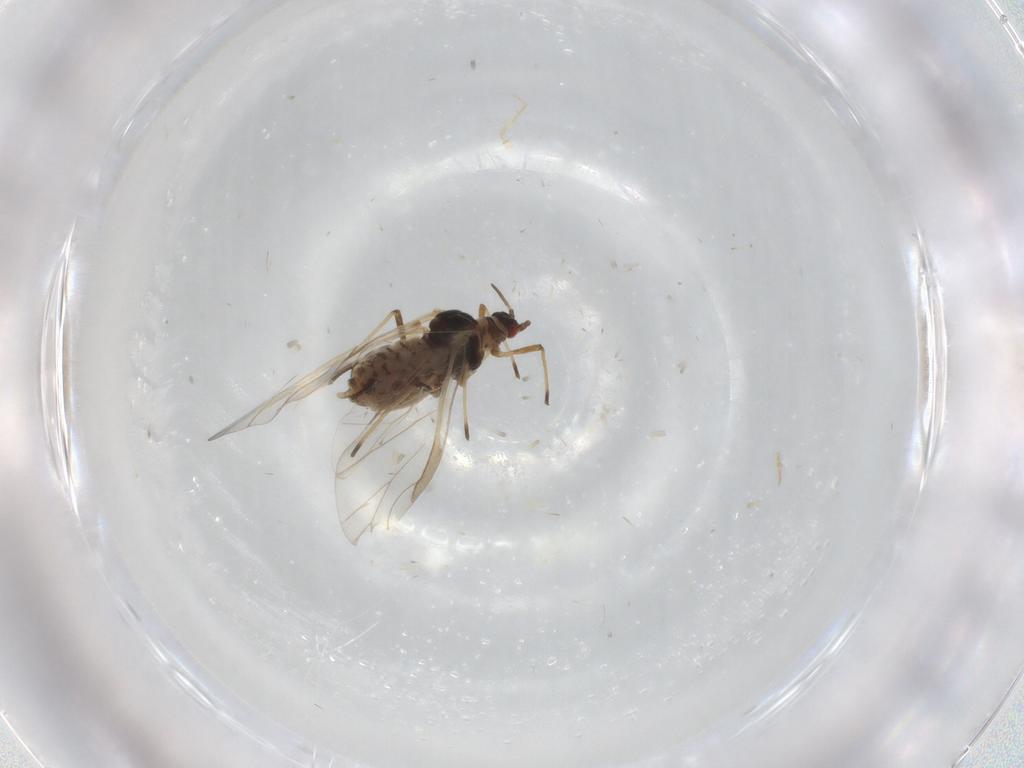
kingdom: Animalia
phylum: Arthropoda
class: Insecta
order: Hemiptera
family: Aphididae
